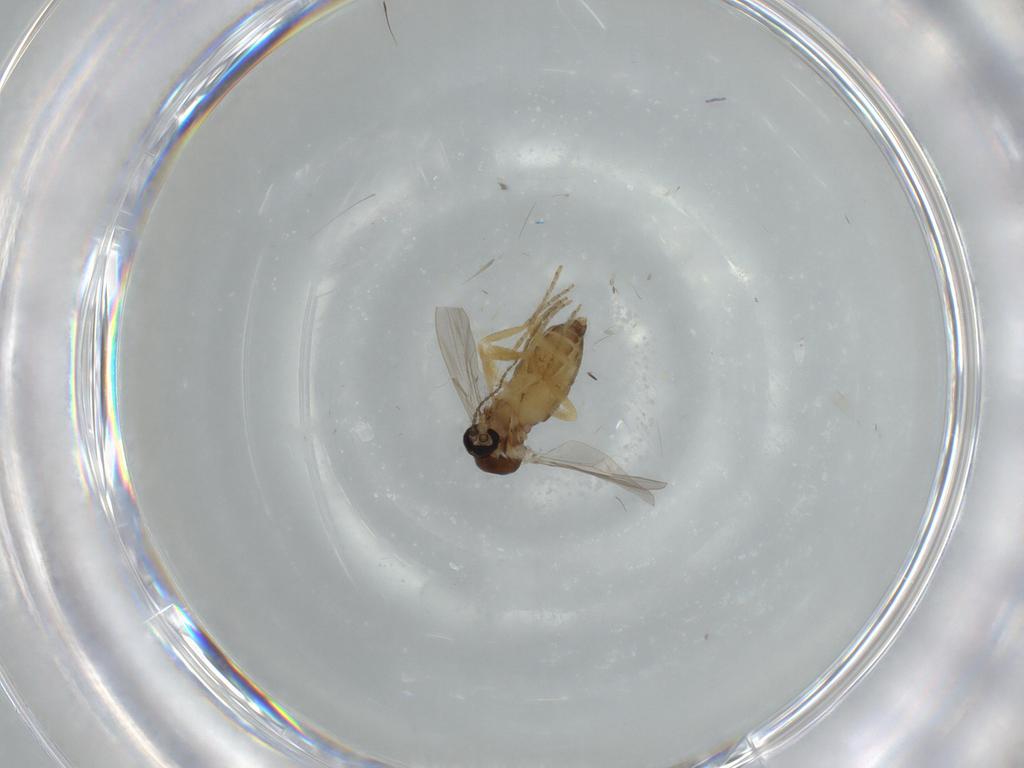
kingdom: Animalia
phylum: Arthropoda
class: Insecta
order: Diptera
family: Ceratopogonidae
